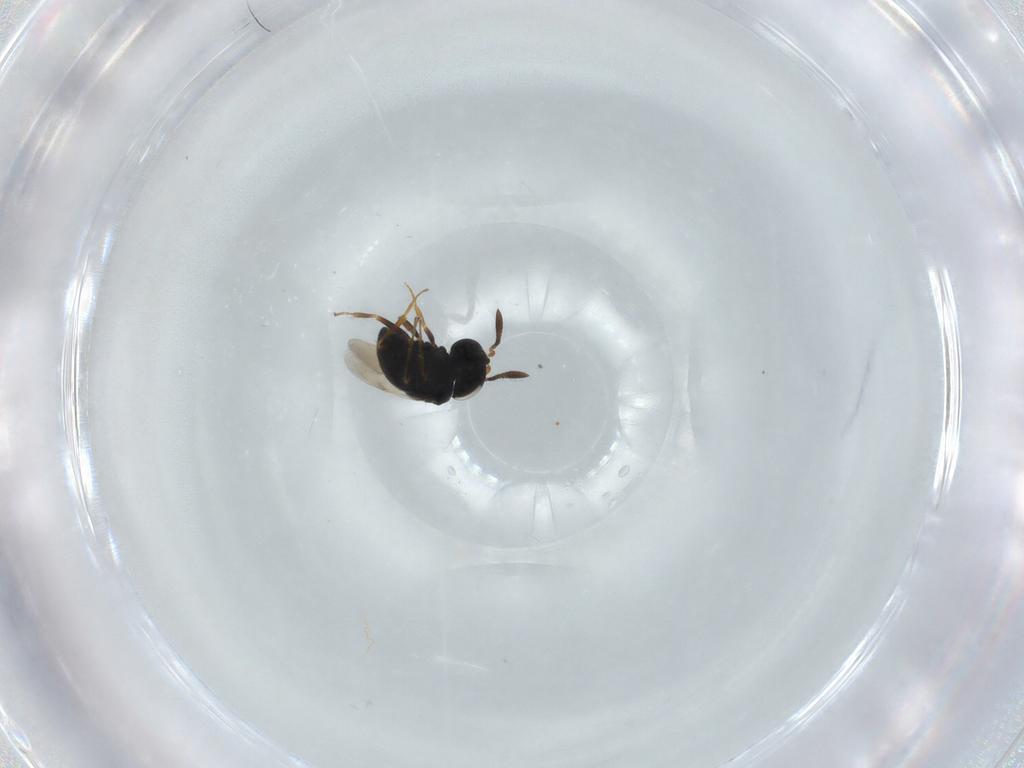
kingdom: Animalia
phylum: Arthropoda
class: Insecta
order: Hymenoptera
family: Scelionidae
